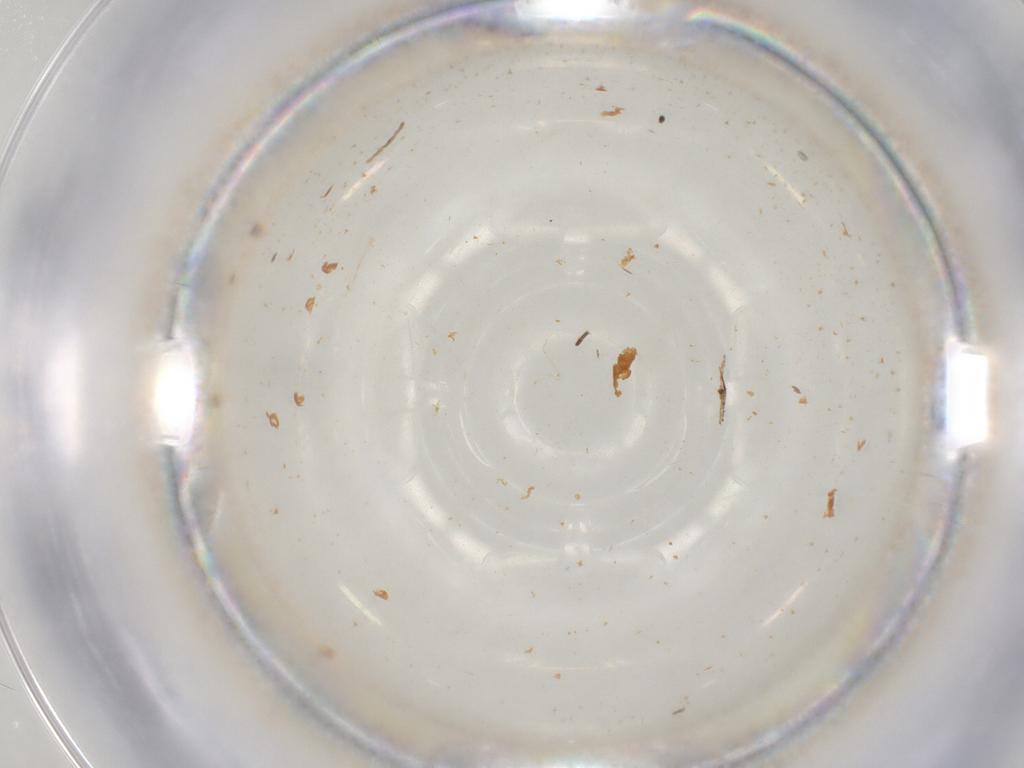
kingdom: Animalia
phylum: Arthropoda
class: Insecta
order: Diptera
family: Sciaridae
